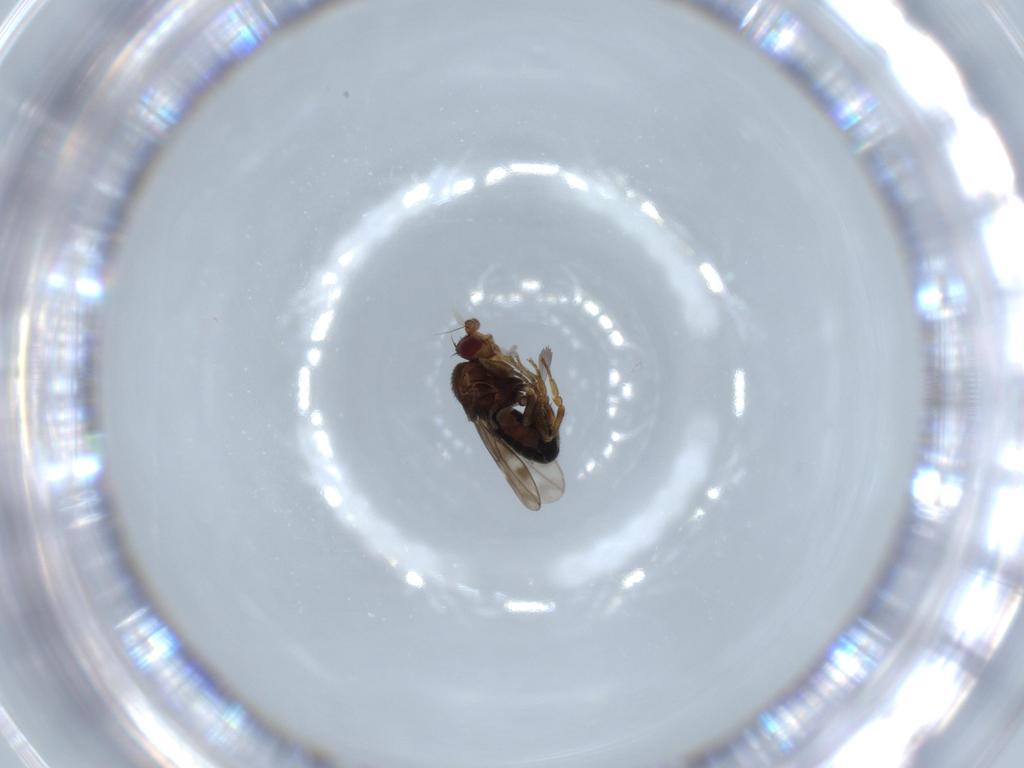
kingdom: Animalia
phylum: Arthropoda
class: Insecta
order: Diptera
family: Sphaeroceridae
